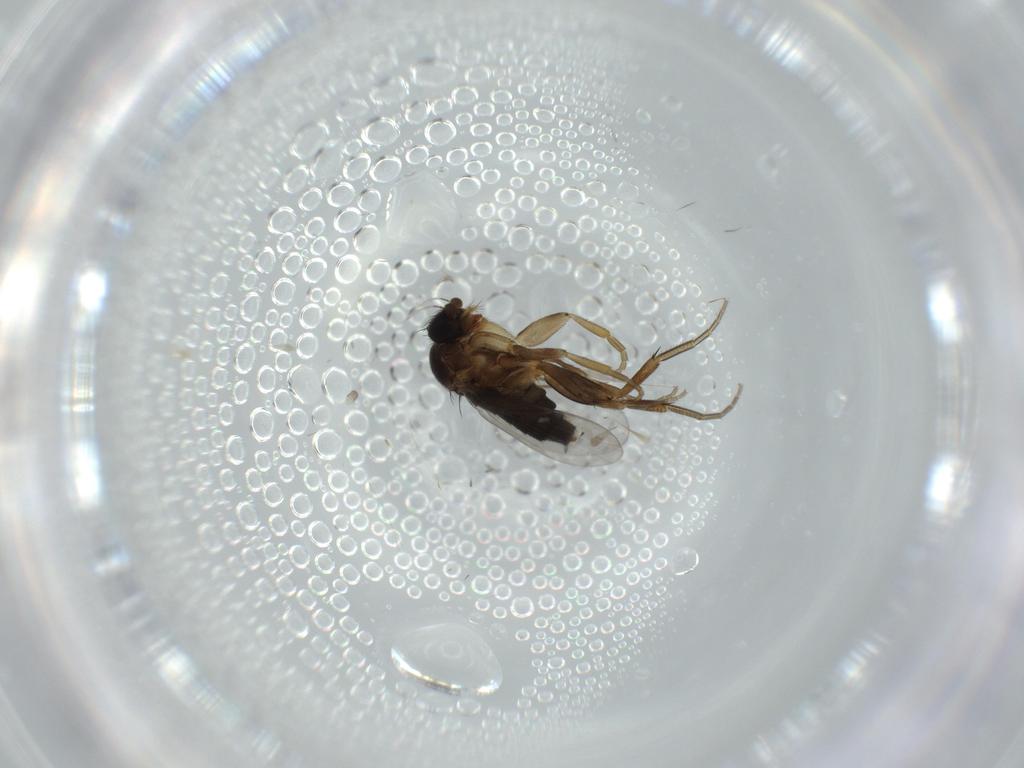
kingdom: Animalia
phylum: Arthropoda
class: Insecta
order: Diptera
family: Phoridae
